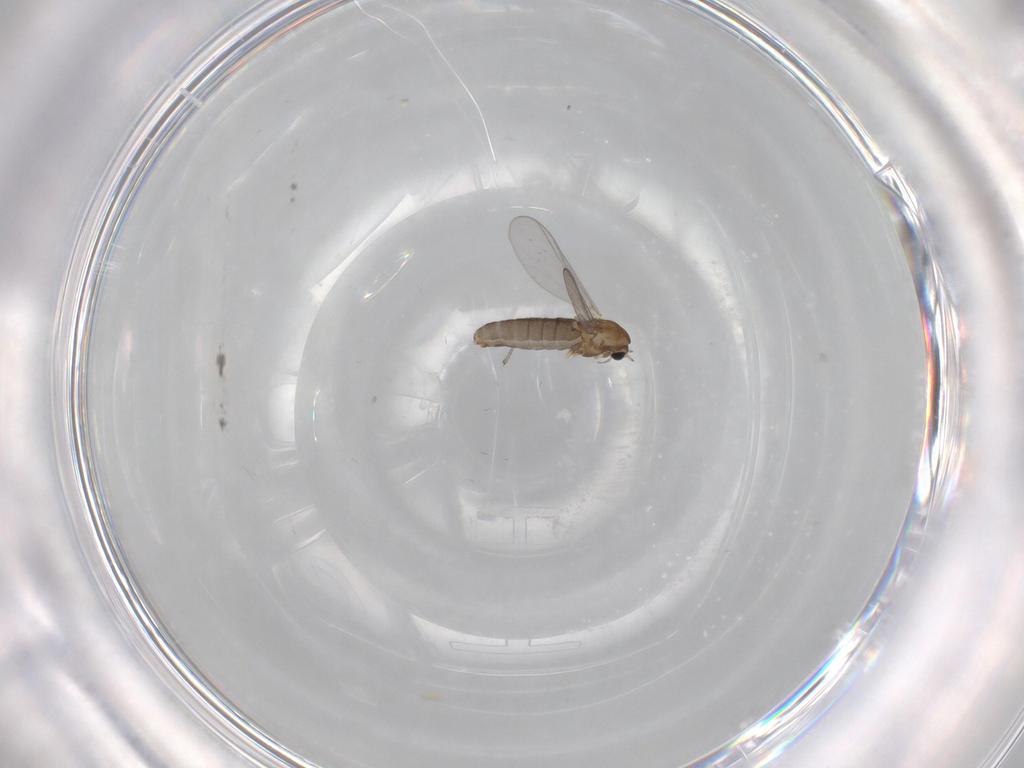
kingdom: Animalia
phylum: Arthropoda
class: Insecta
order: Diptera
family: Chironomidae
